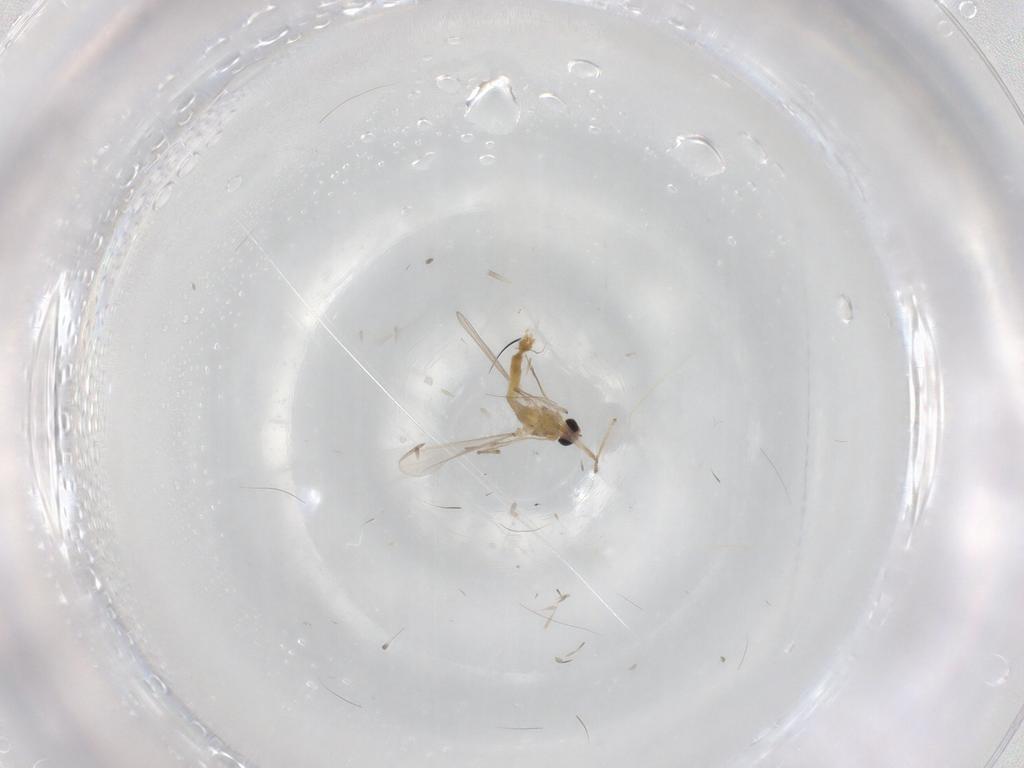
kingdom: Animalia
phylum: Arthropoda
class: Insecta
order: Diptera
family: Chironomidae
